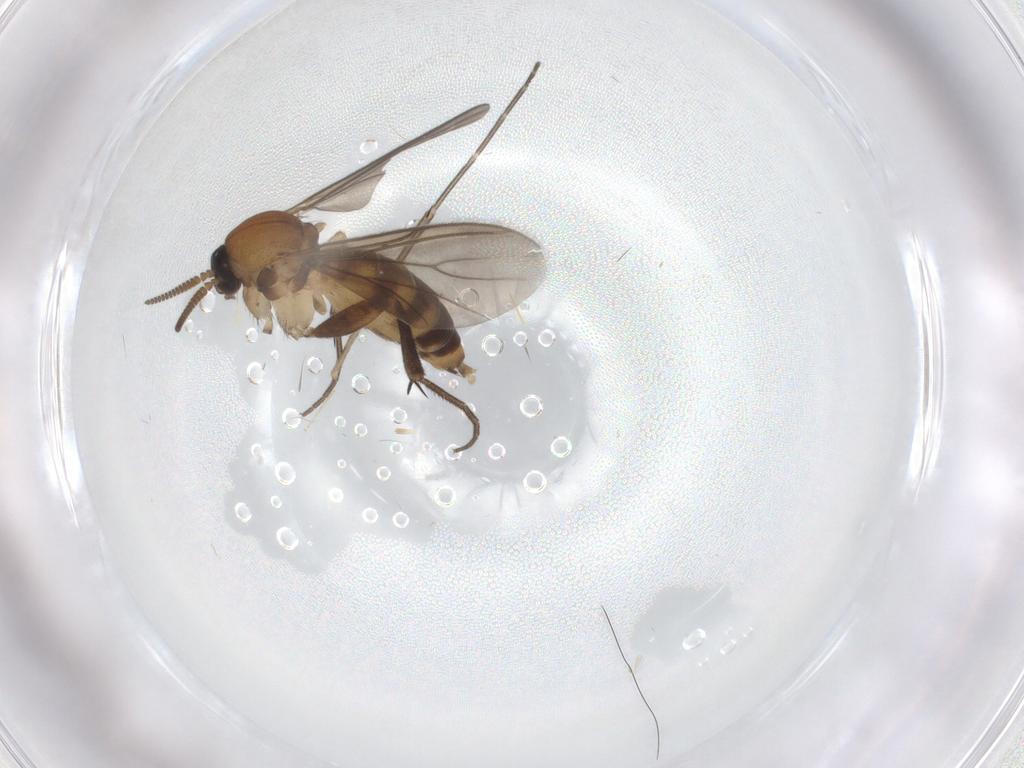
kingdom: Animalia
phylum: Arthropoda
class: Insecta
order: Diptera
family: Mycetophilidae
